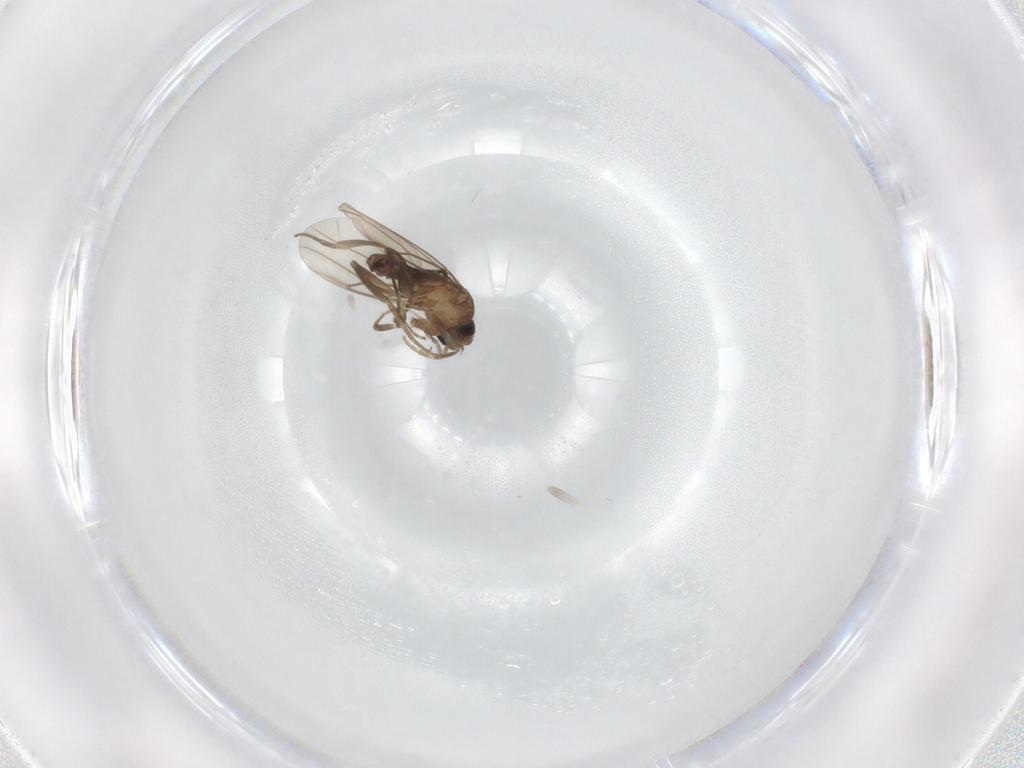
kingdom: Animalia
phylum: Arthropoda
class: Insecta
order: Diptera
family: Phoridae
